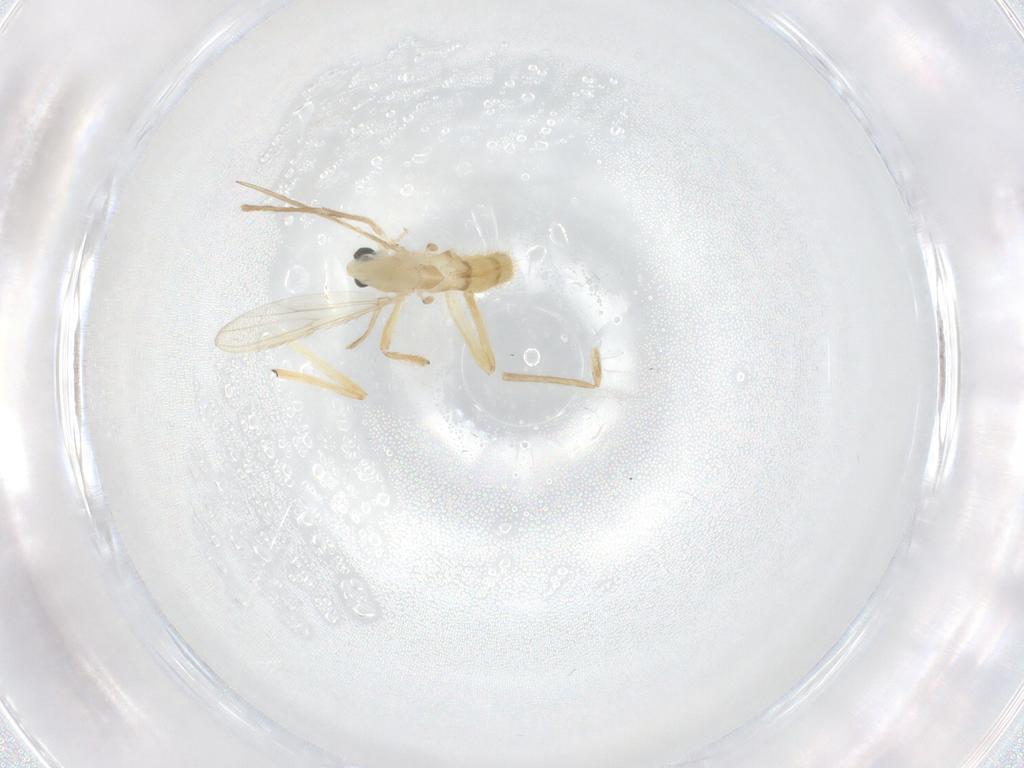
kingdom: Animalia
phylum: Arthropoda
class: Insecta
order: Diptera
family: Chironomidae
